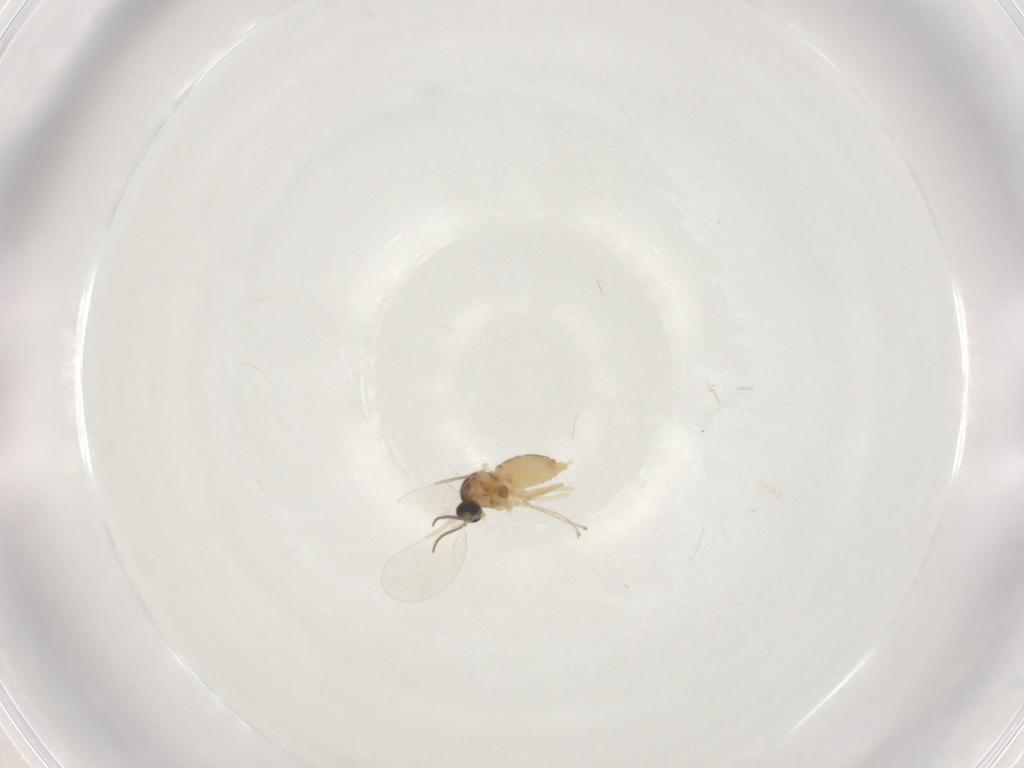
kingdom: Animalia
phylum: Arthropoda
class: Insecta
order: Diptera
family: Cecidomyiidae
